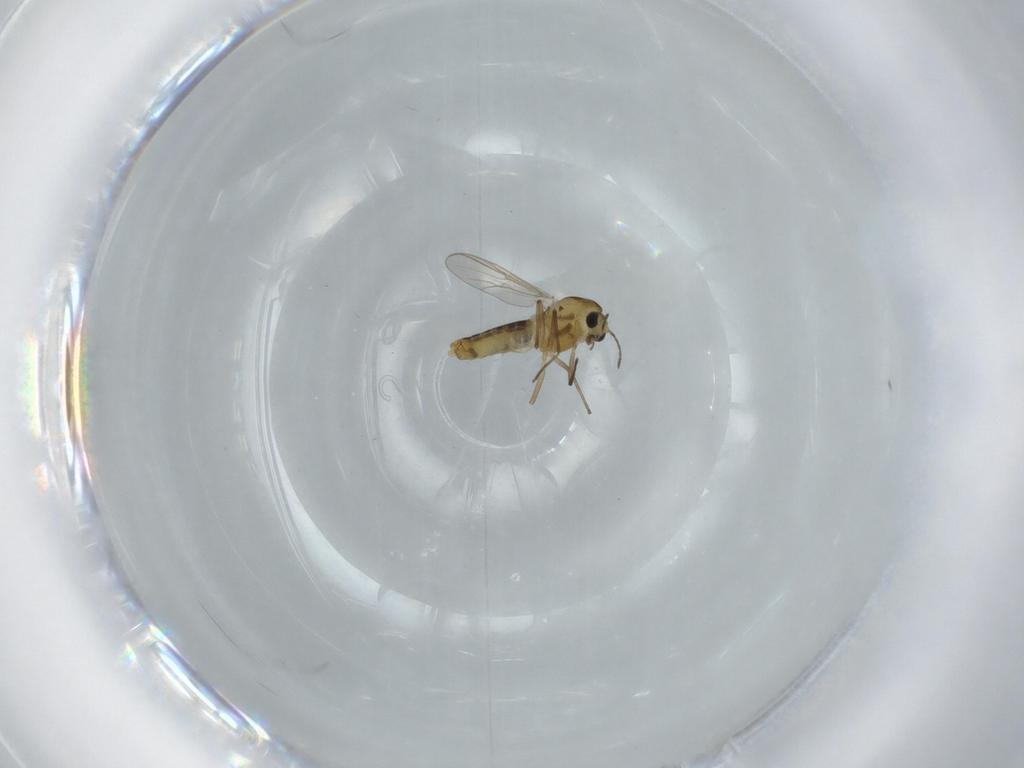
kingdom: Animalia
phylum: Arthropoda
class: Insecta
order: Diptera
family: Chironomidae
